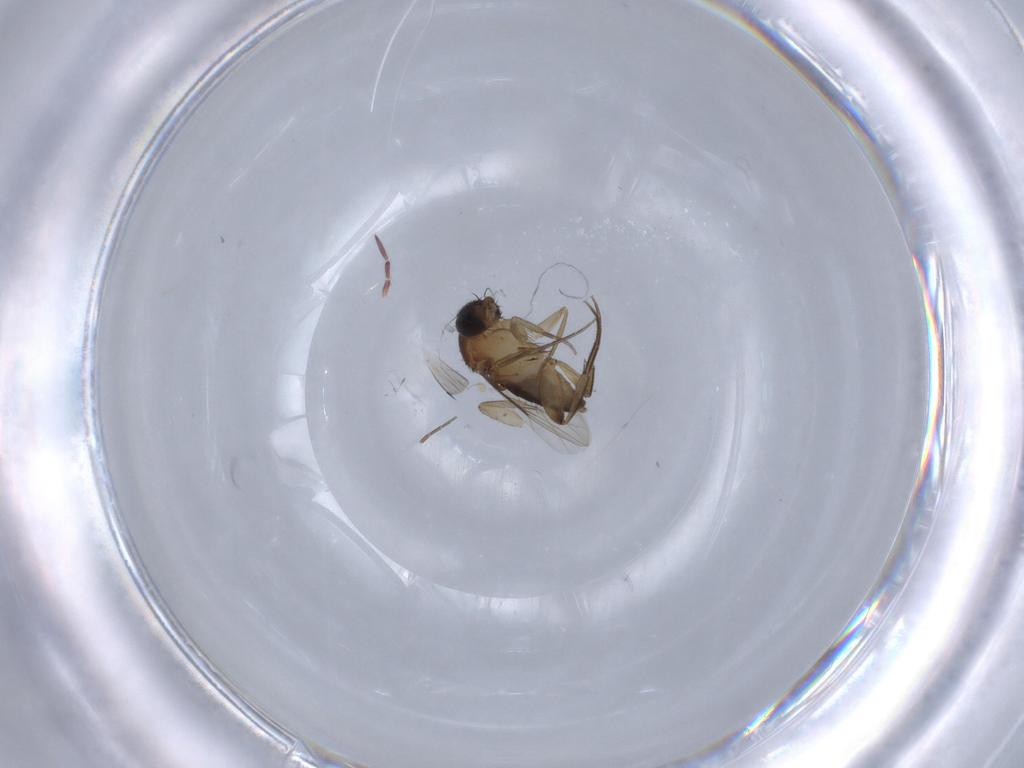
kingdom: Animalia
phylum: Arthropoda
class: Insecta
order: Diptera
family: Phoridae
